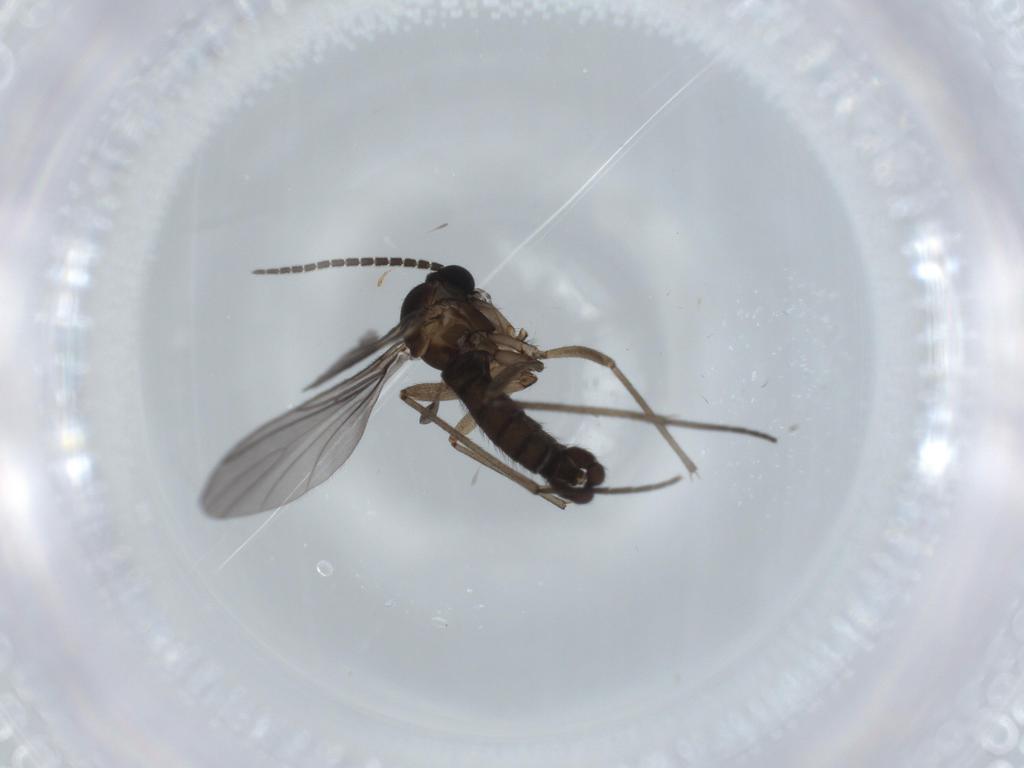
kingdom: Animalia
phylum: Arthropoda
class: Insecta
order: Diptera
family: Sciaridae
